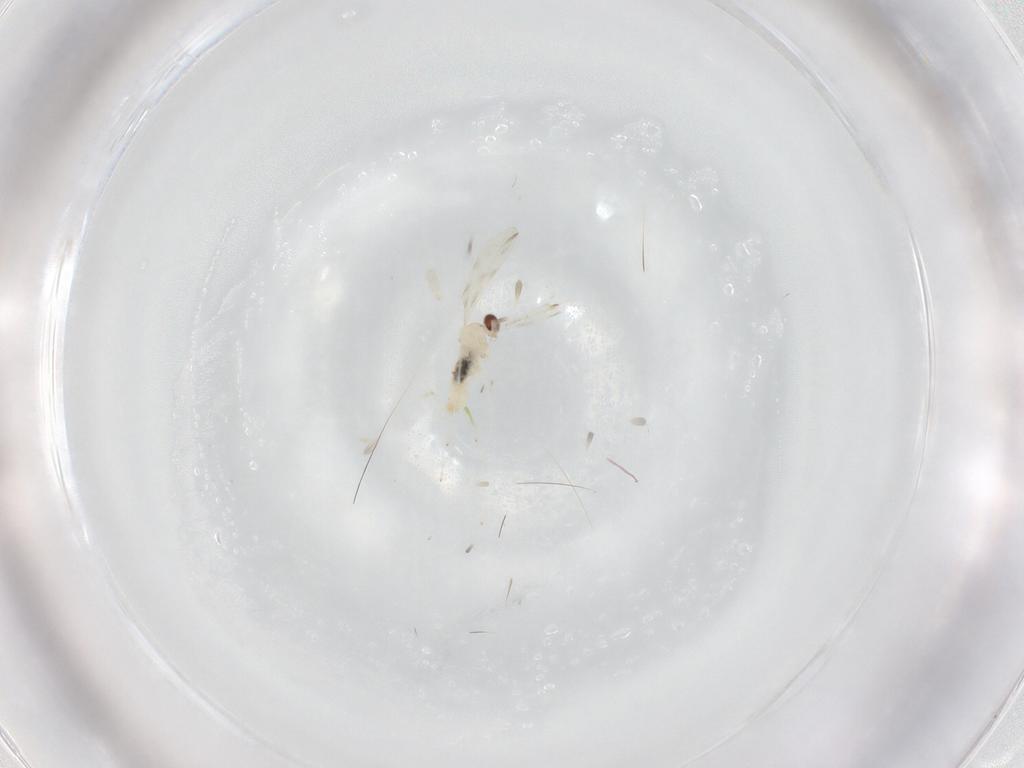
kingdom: Animalia
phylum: Arthropoda
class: Insecta
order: Diptera
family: Cecidomyiidae
